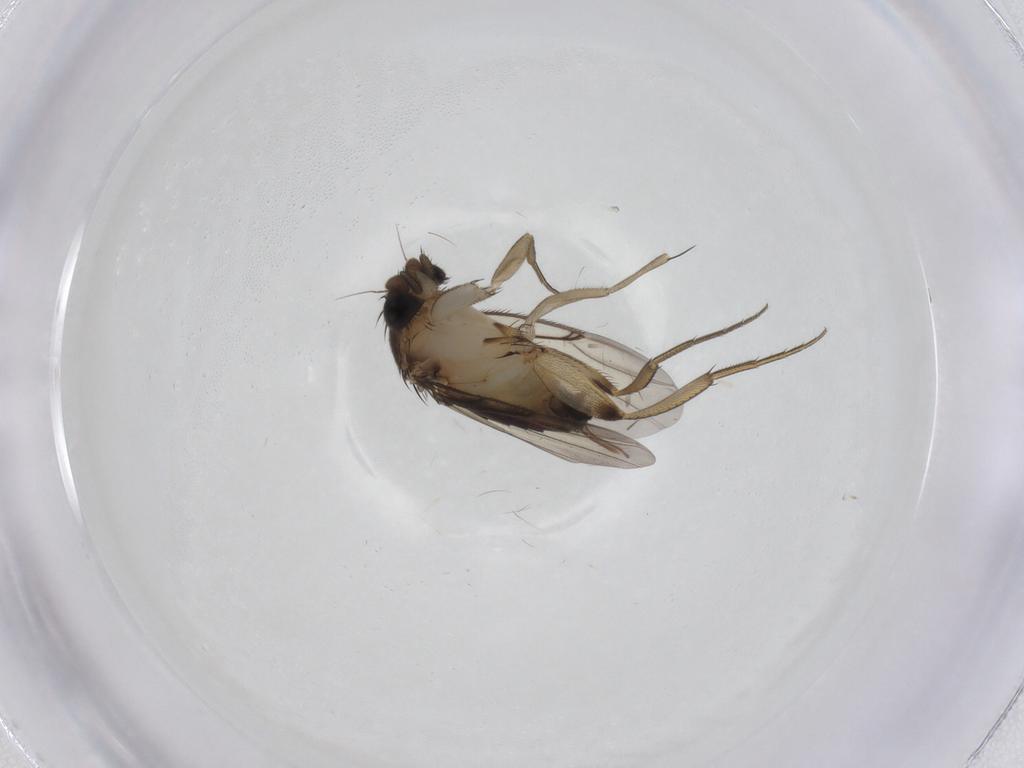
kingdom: Animalia
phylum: Arthropoda
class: Insecta
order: Diptera
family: Phoridae
